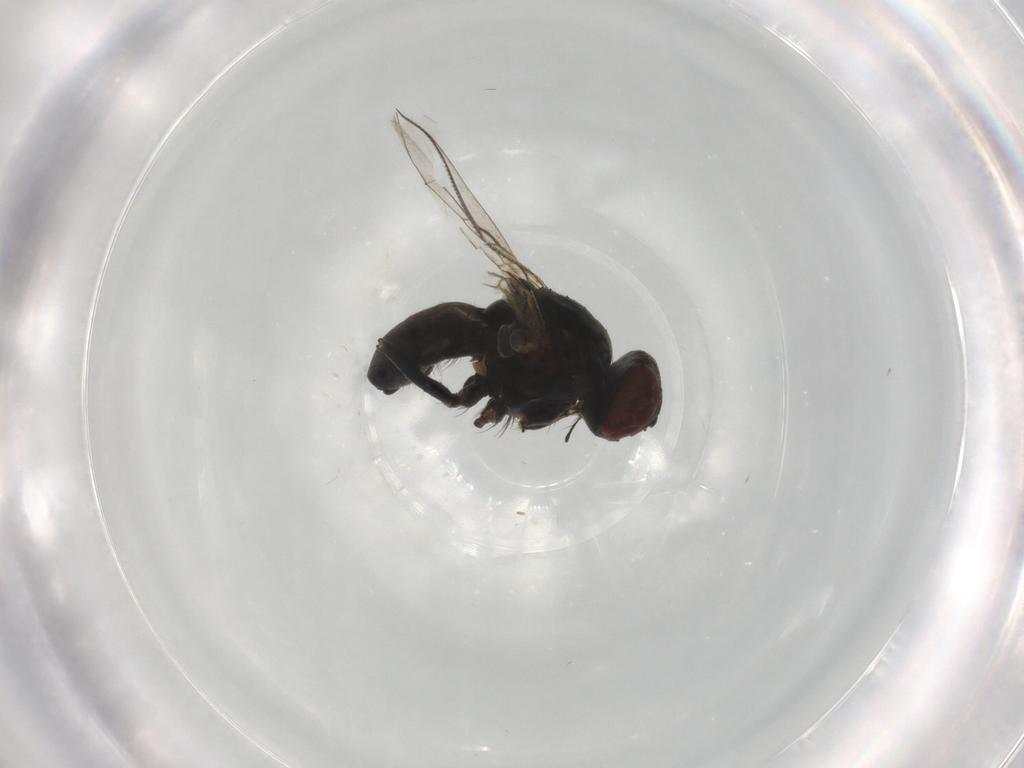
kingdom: Animalia
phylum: Arthropoda
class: Insecta
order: Diptera
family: Muscidae
